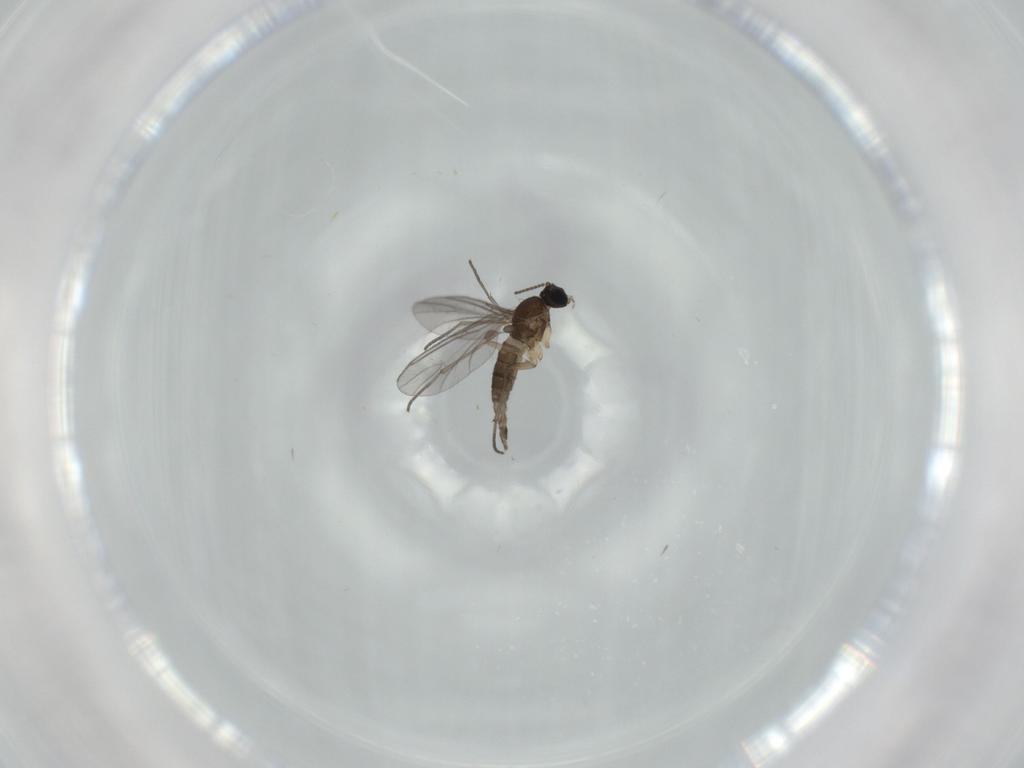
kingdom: Animalia
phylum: Arthropoda
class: Insecta
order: Diptera
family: Cecidomyiidae
